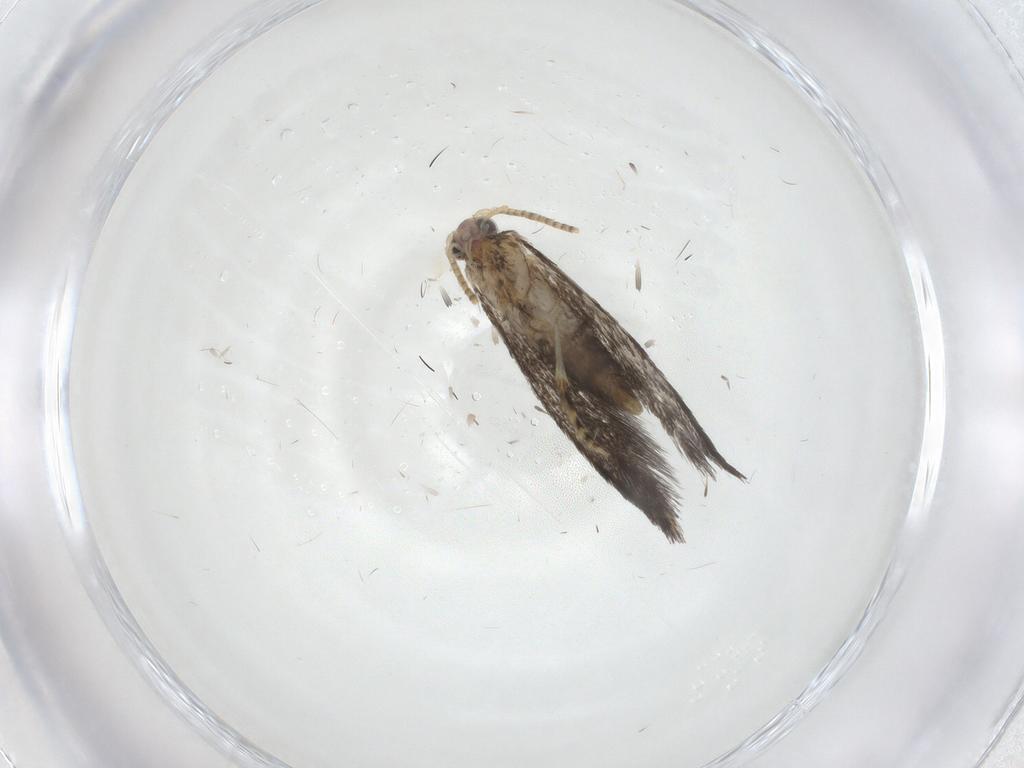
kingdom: Animalia
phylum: Arthropoda
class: Insecta
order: Lepidoptera
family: Tineidae
